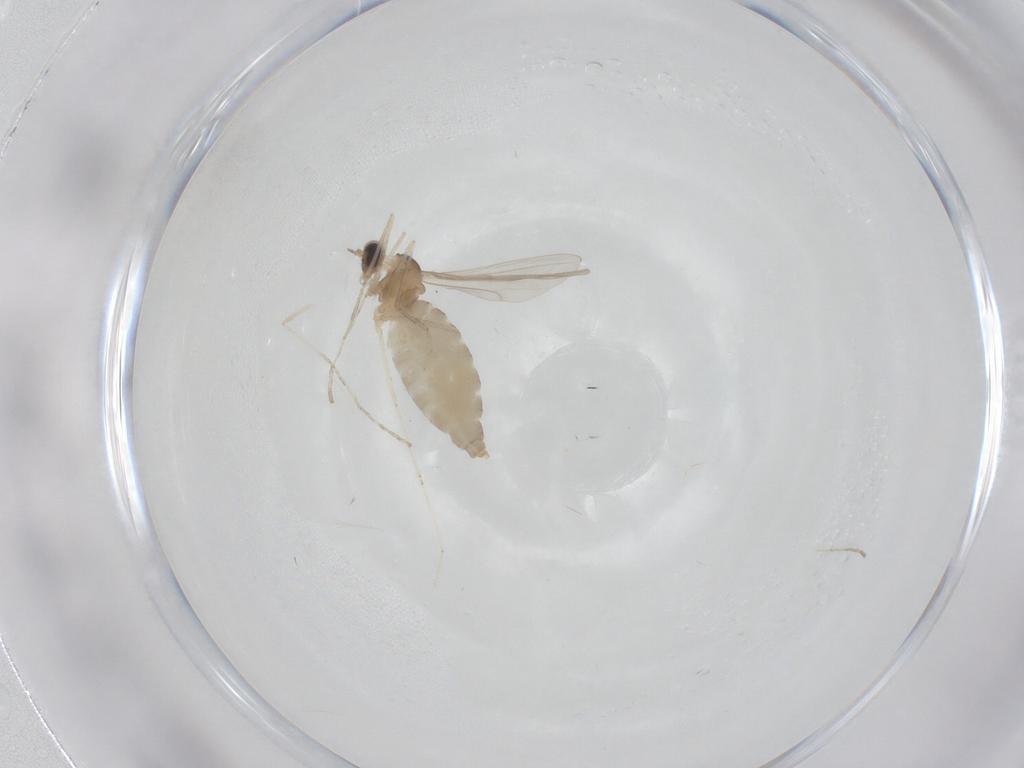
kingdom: Animalia
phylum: Arthropoda
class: Insecta
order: Diptera
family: Cecidomyiidae
